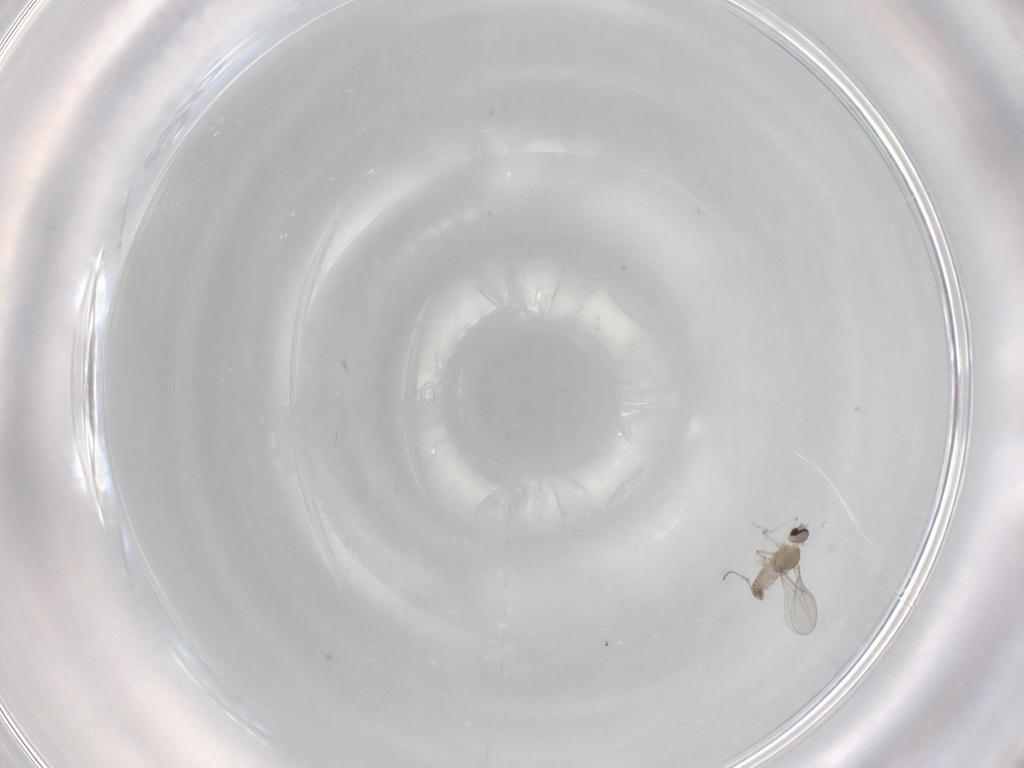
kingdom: Animalia
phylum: Arthropoda
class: Insecta
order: Diptera
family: Cecidomyiidae
